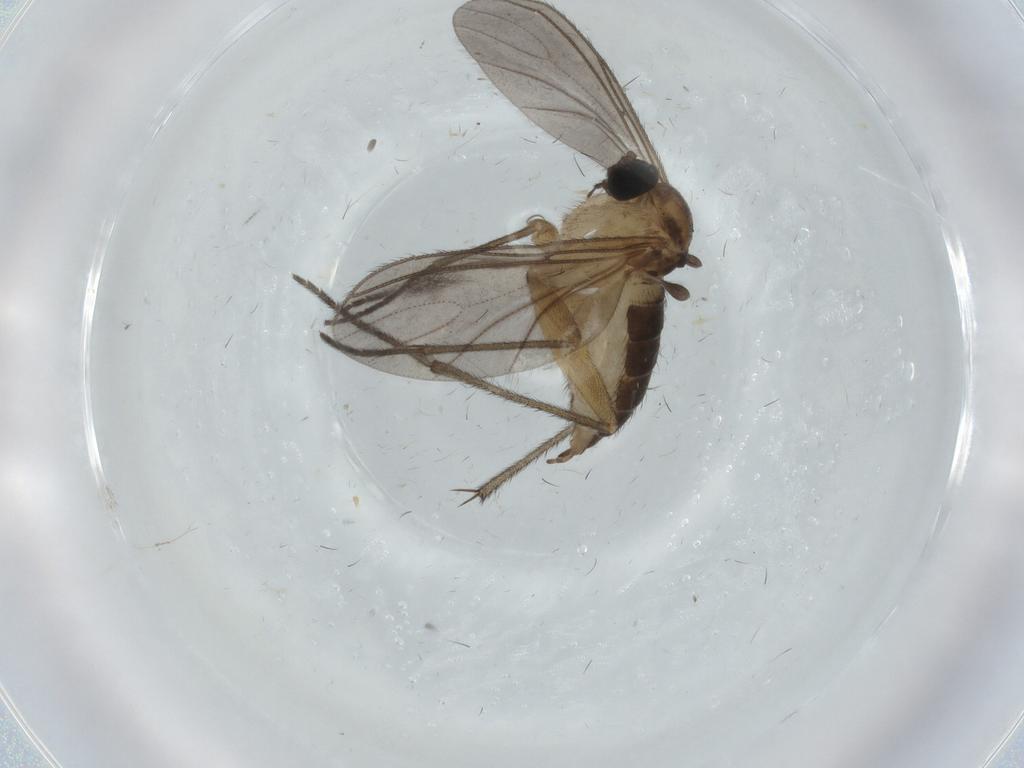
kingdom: Animalia
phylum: Arthropoda
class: Insecta
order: Diptera
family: Sciaridae
